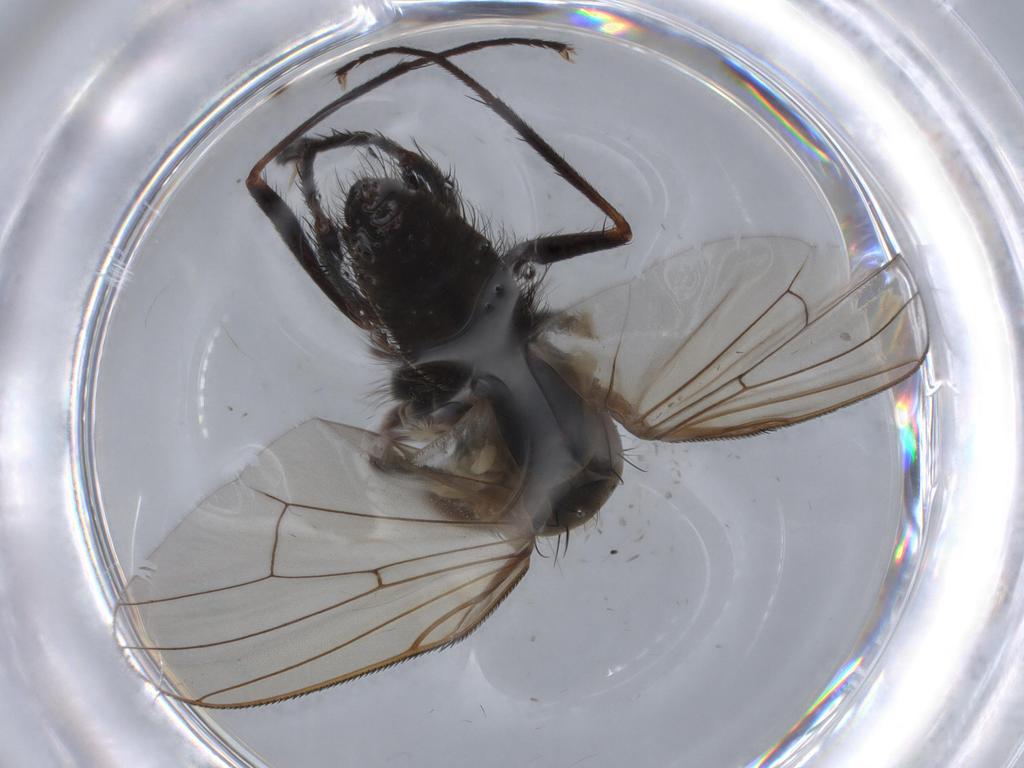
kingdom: Animalia
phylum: Arthropoda
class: Insecta
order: Diptera
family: Anthomyiidae
